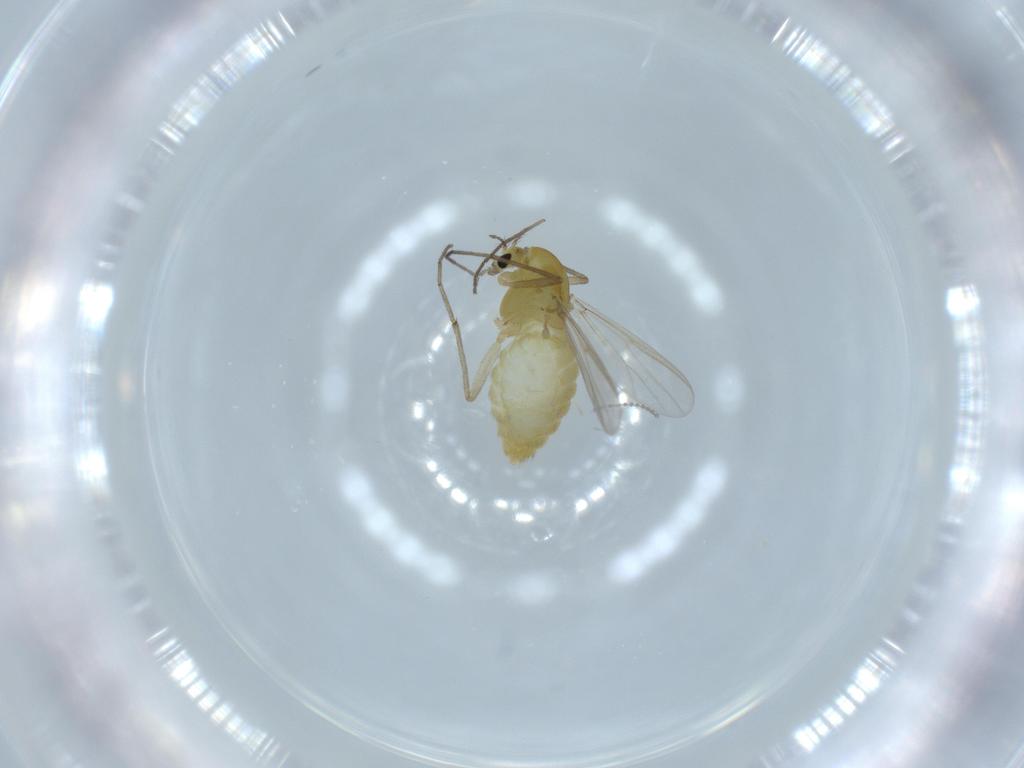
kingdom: Animalia
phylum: Arthropoda
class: Insecta
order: Diptera
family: Chironomidae
